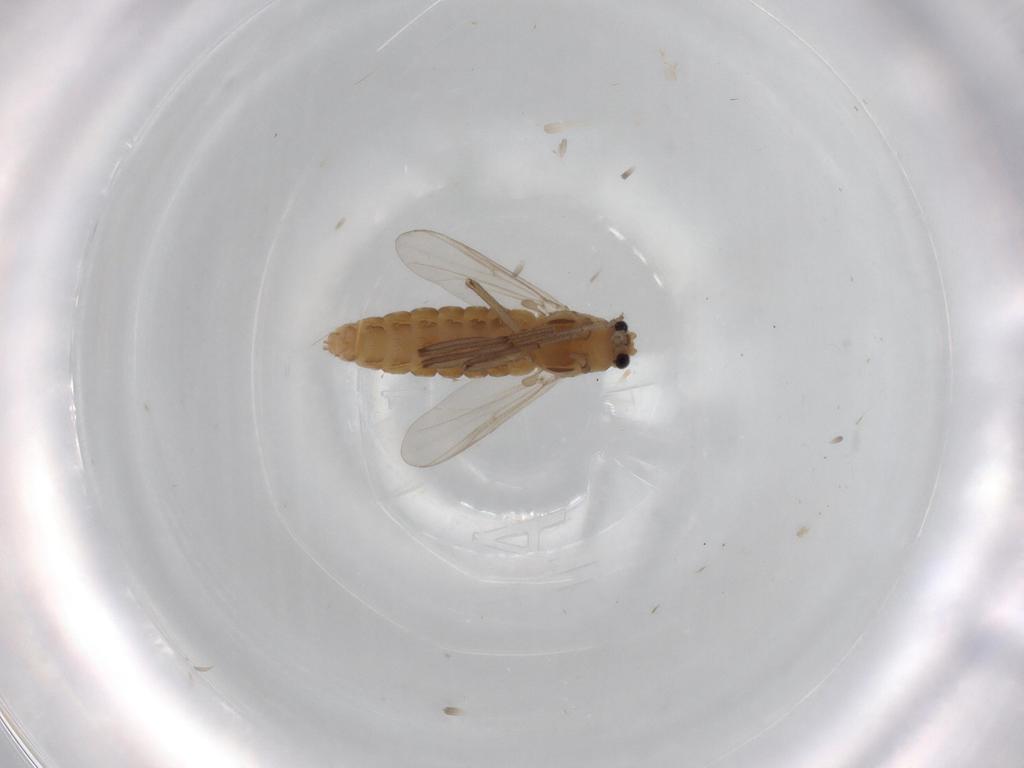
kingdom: Animalia
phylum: Arthropoda
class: Insecta
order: Diptera
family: Chironomidae
